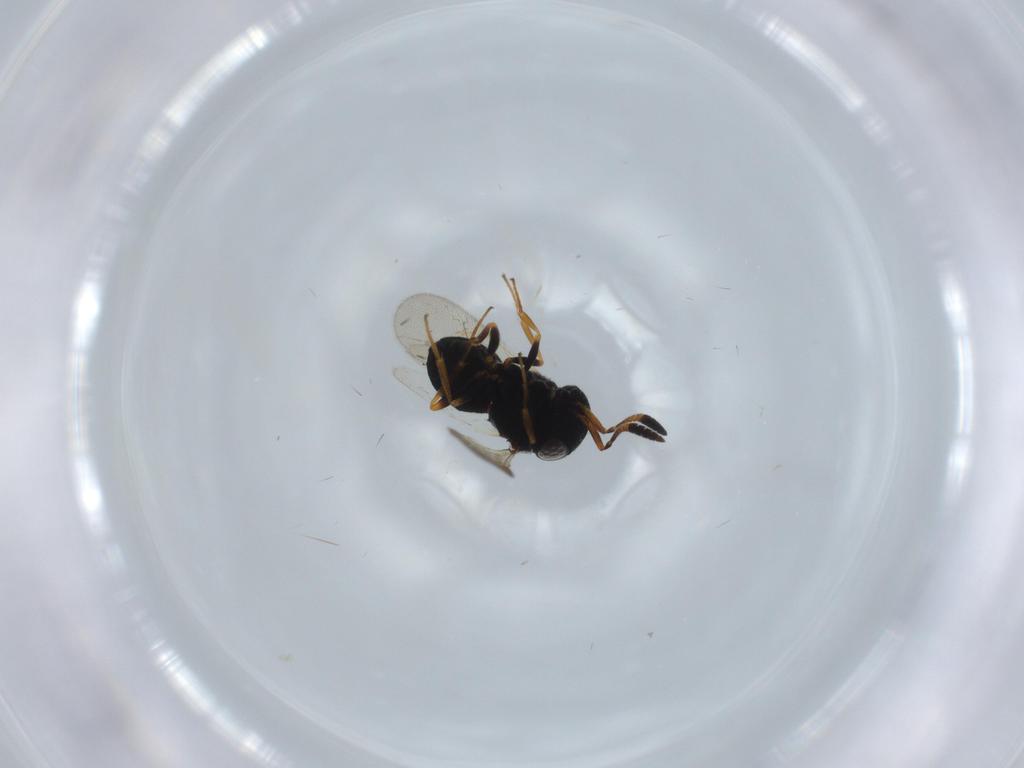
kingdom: Animalia
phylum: Arthropoda
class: Insecta
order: Hymenoptera
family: Scelionidae
